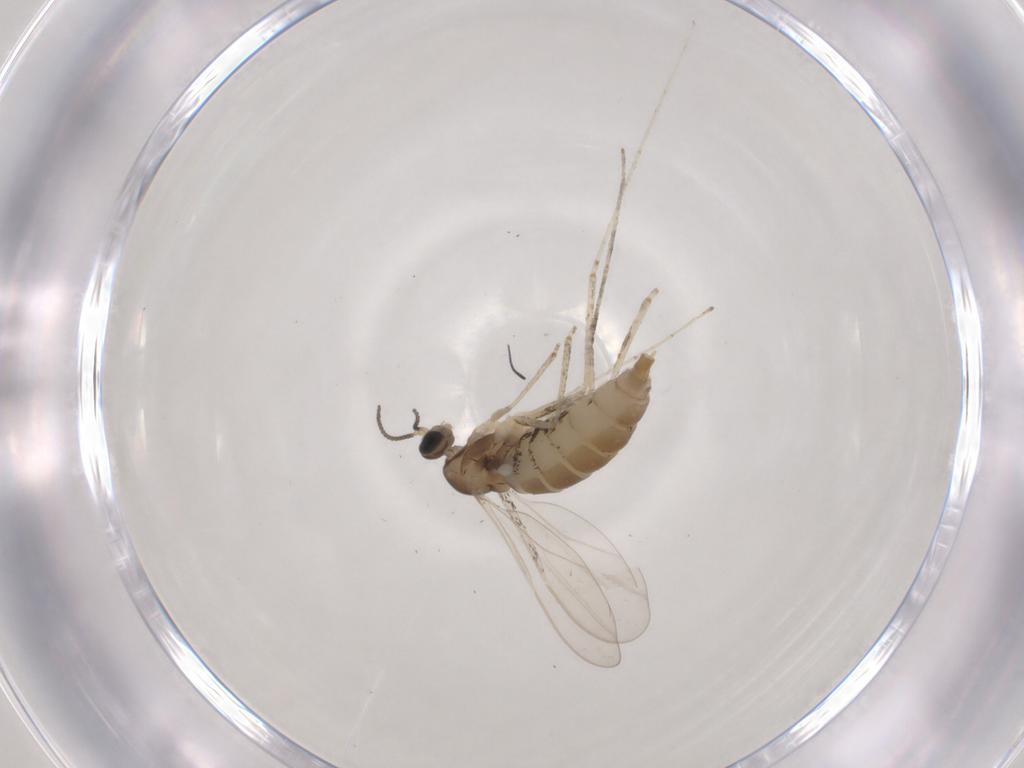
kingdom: Animalia
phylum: Arthropoda
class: Insecta
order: Diptera
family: Cecidomyiidae
